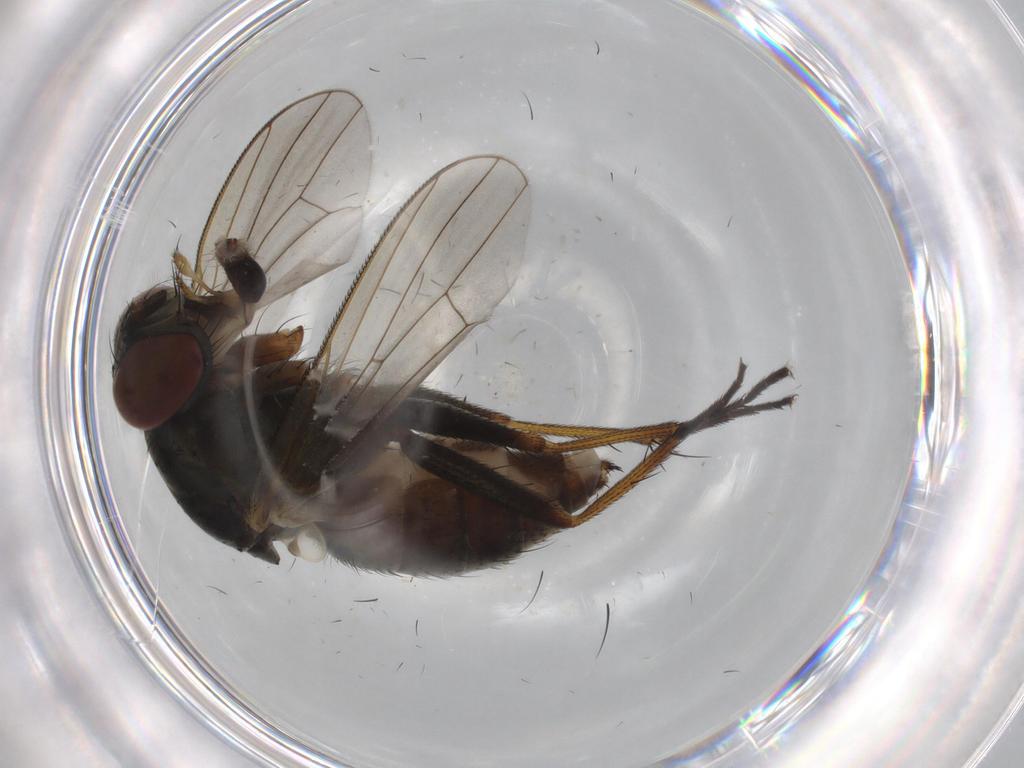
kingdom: Animalia
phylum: Arthropoda
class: Insecta
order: Diptera
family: Muscidae
